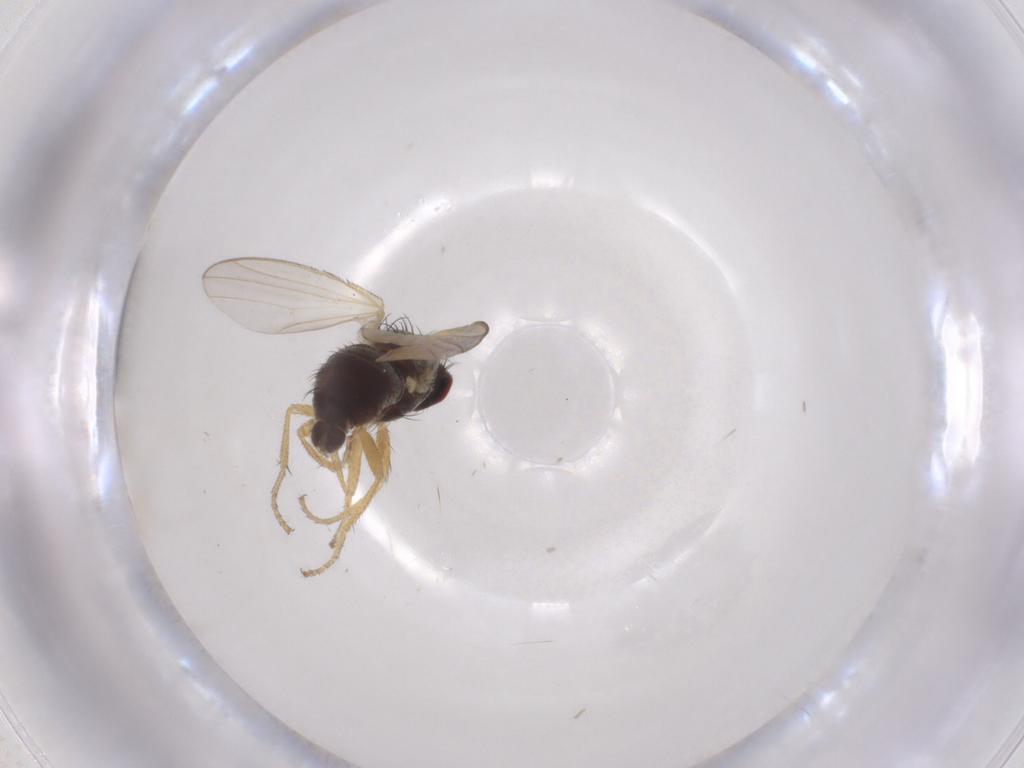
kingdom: Animalia
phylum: Arthropoda
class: Insecta
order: Diptera
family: Heleomyzidae
